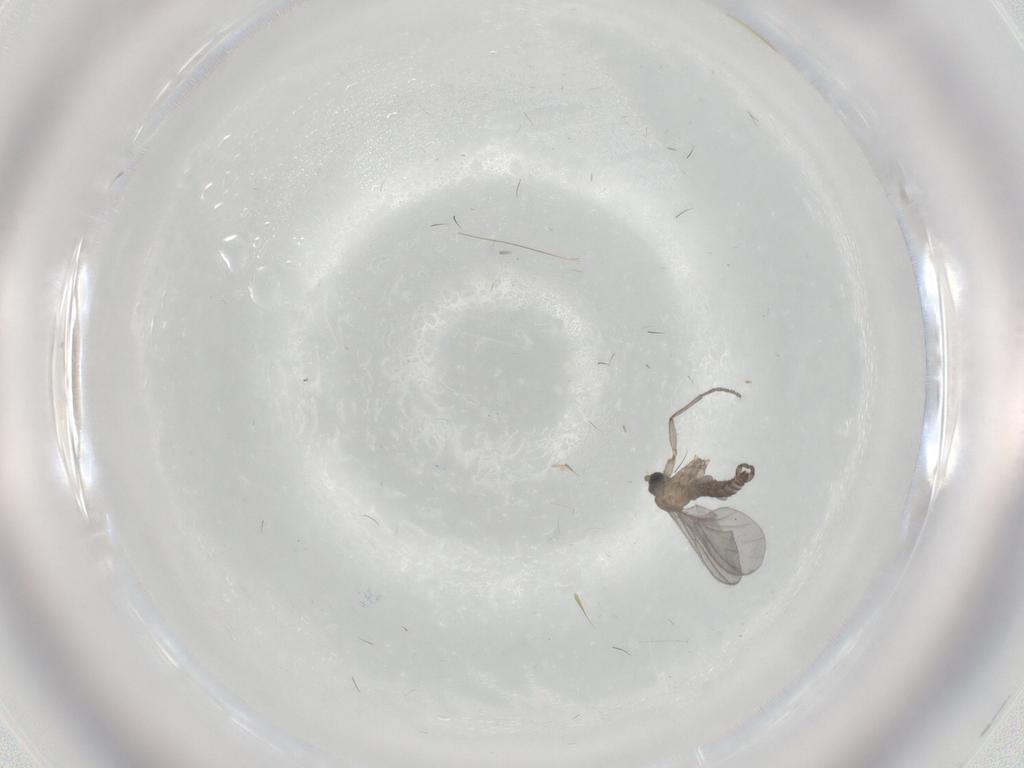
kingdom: Animalia
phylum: Arthropoda
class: Insecta
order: Diptera
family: Sciaridae
